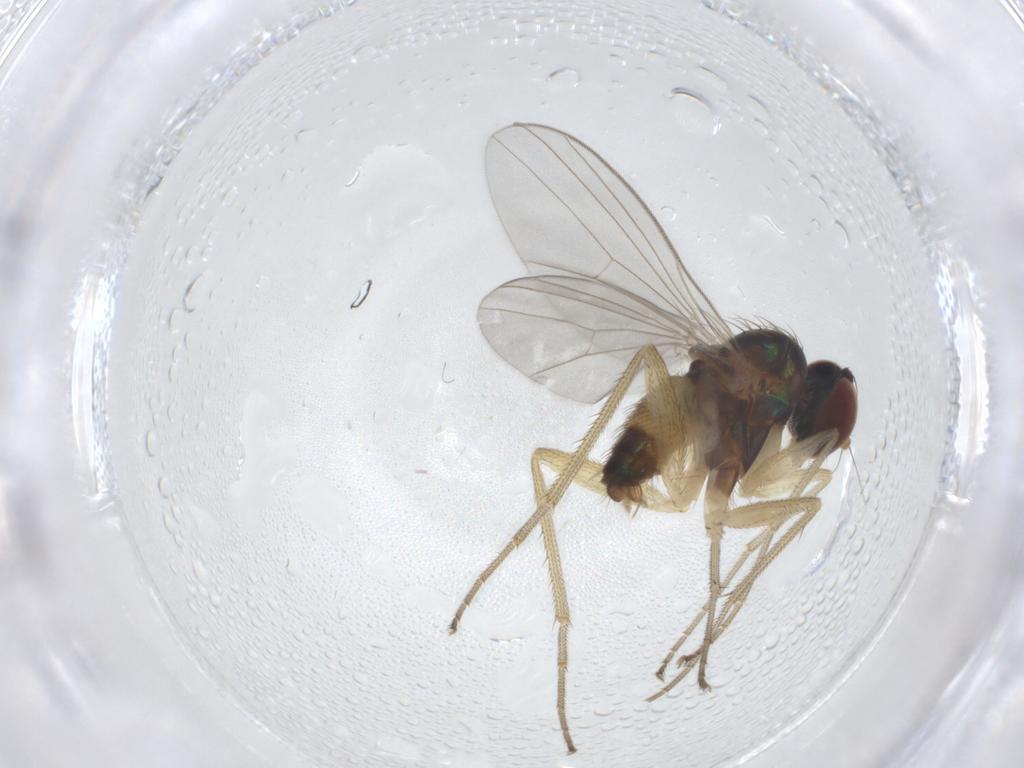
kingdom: Animalia
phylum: Arthropoda
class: Insecta
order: Diptera
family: Dolichopodidae
